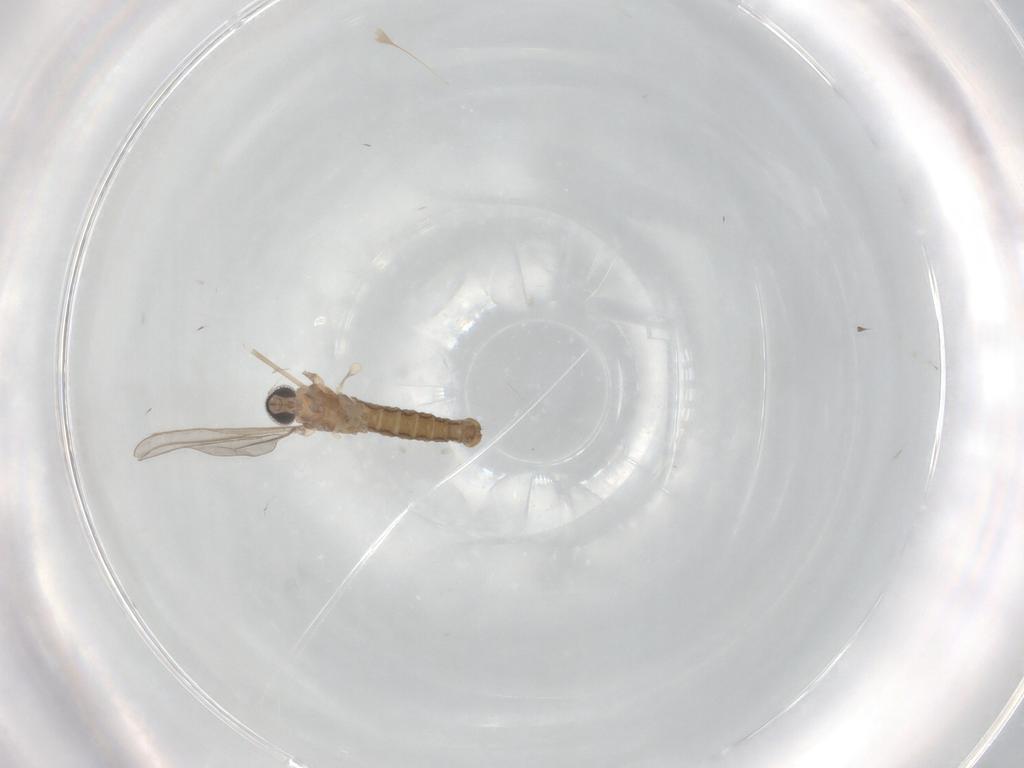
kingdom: Animalia
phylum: Arthropoda
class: Insecta
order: Diptera
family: Cecidomyiidae
